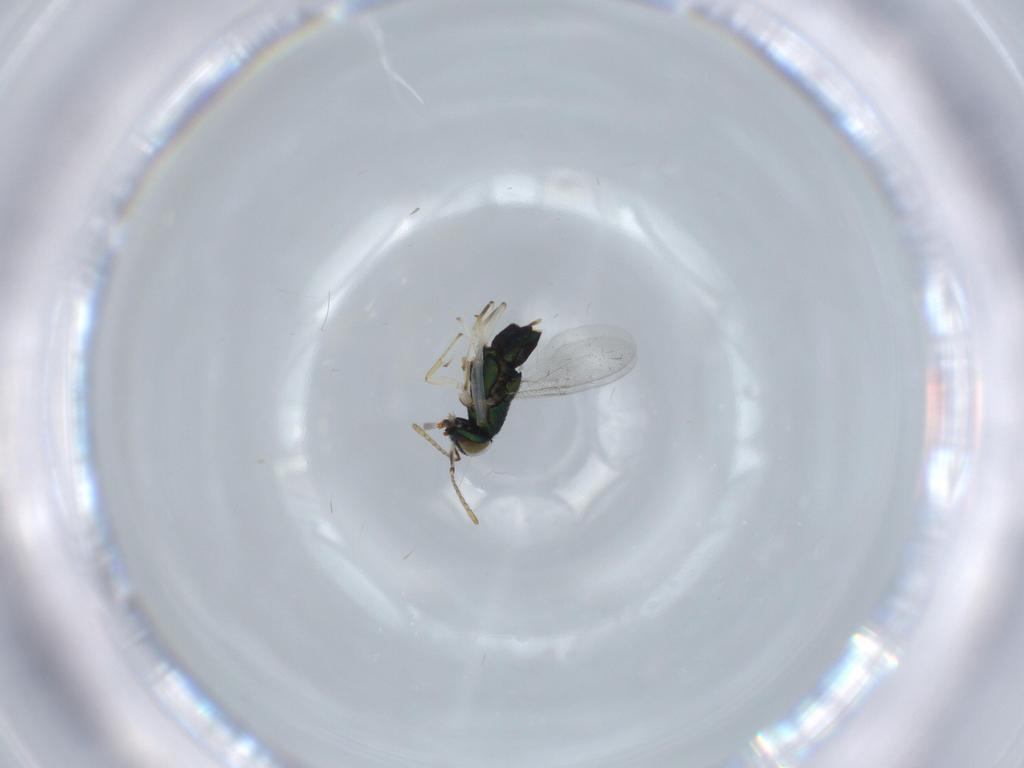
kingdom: Animalia
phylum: Arthropoda
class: Insecta
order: Hymenoptera
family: Encyrtidae
